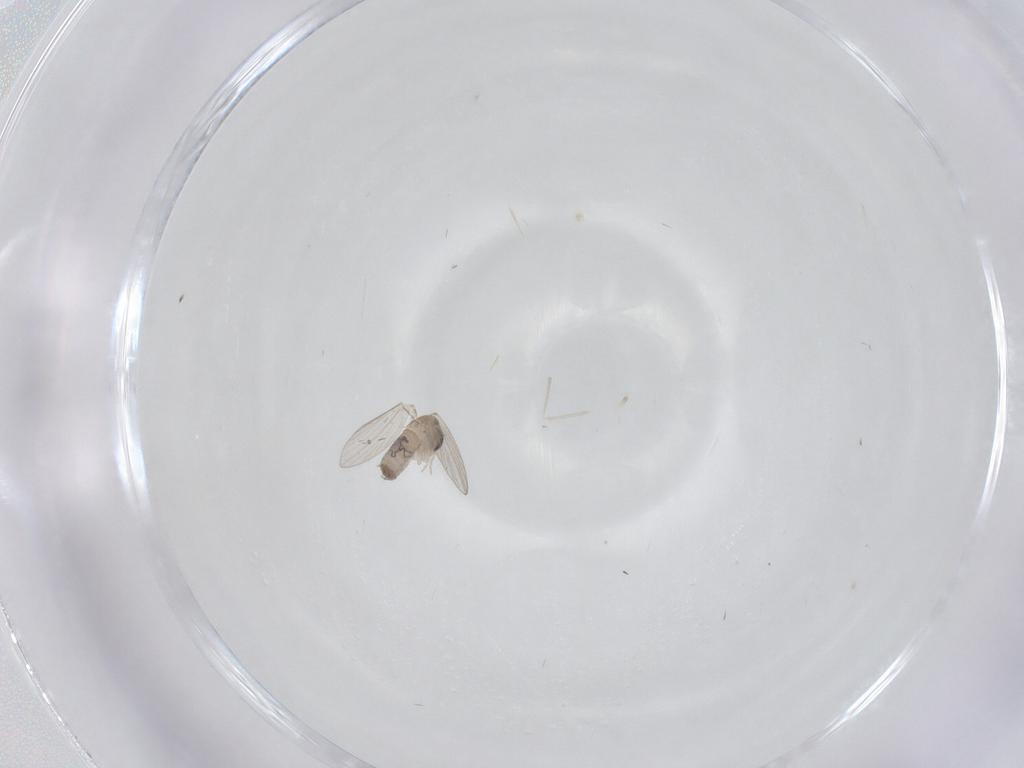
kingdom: Animalia
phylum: Arthropoda
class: Insecta
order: Diptera
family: Psychodidae
